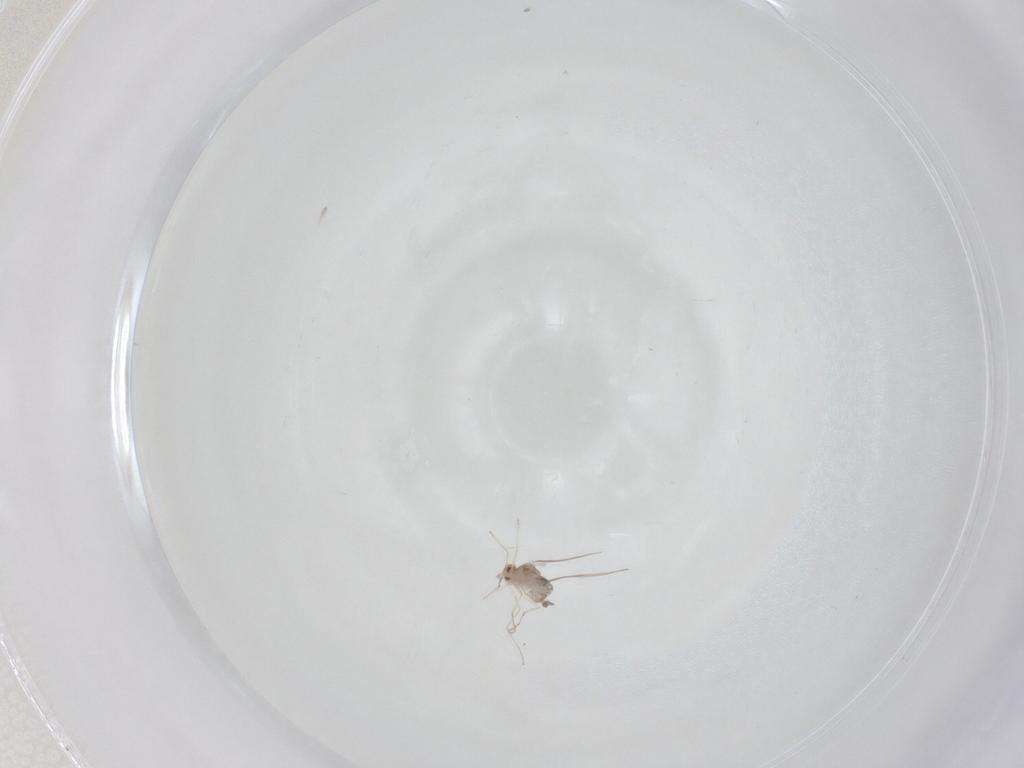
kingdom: Animalia
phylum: Arthropoda
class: Insecta
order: Diptera
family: Cecidomyiidae
